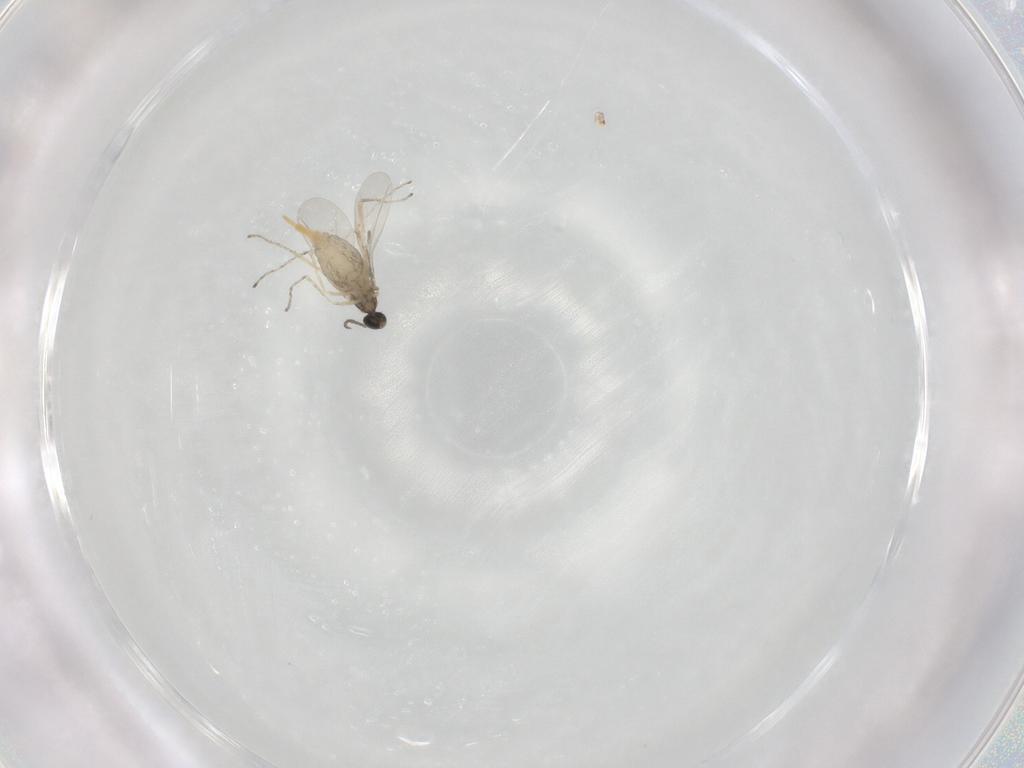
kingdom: Animalia
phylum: Arthropoda
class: Insecta
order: Diptera
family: Cecidomyiidae
